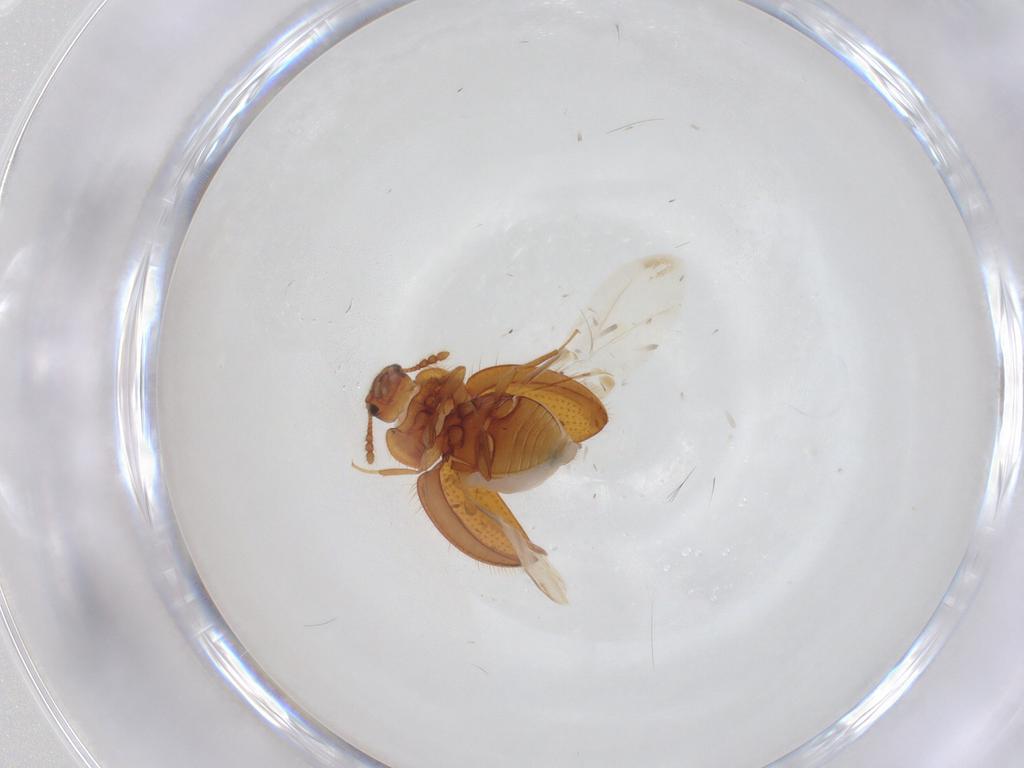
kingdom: Animalia
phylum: Arthropoda
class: Insecta
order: Coleoptera
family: Anamorphidae
